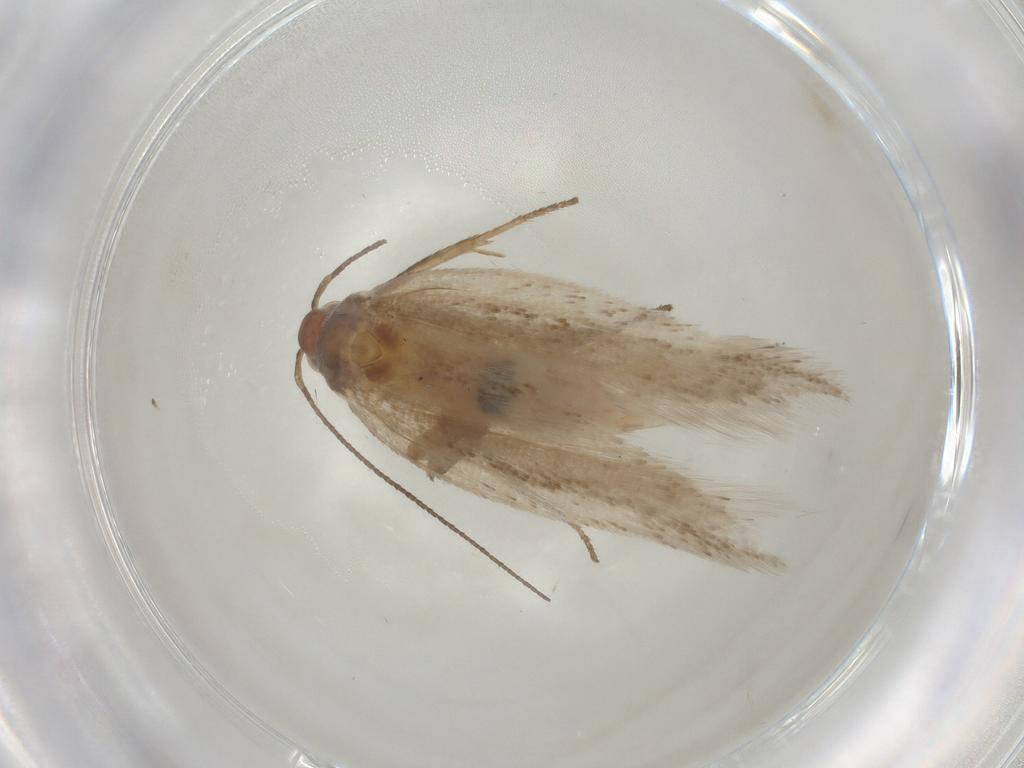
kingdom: Animalia
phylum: Arthropoda
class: Insecta
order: Lepidoptera
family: Gelechiidae
